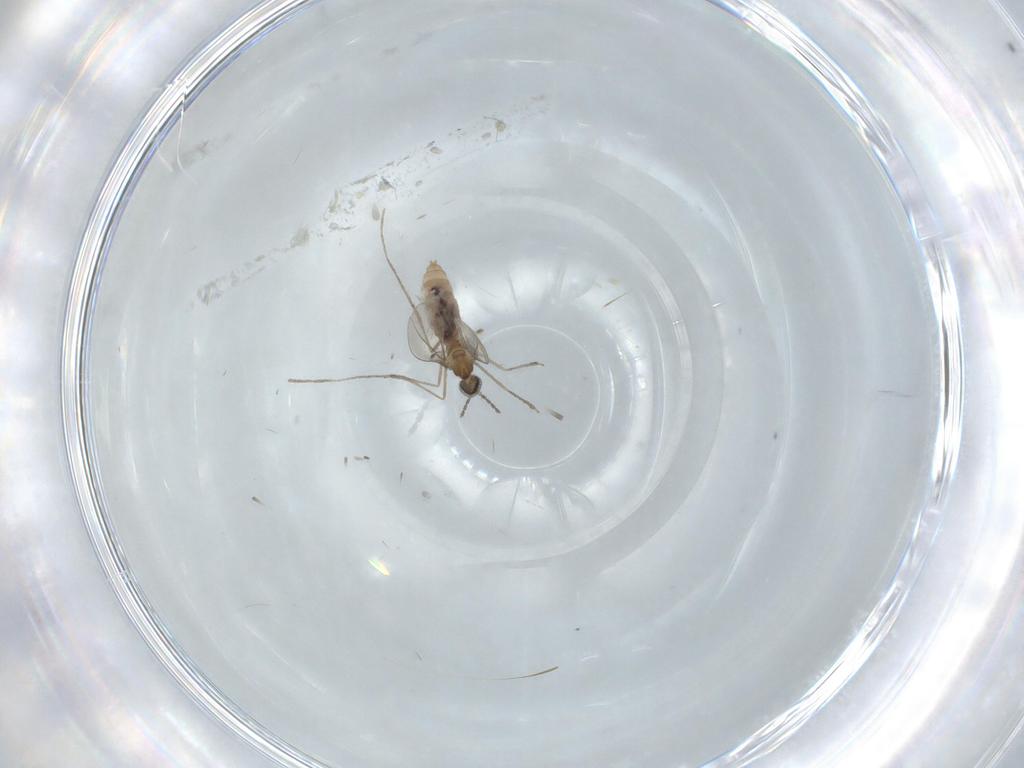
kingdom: Animalia
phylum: Arthropoda
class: Insecta
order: Diptera
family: Cecidomyiidae
